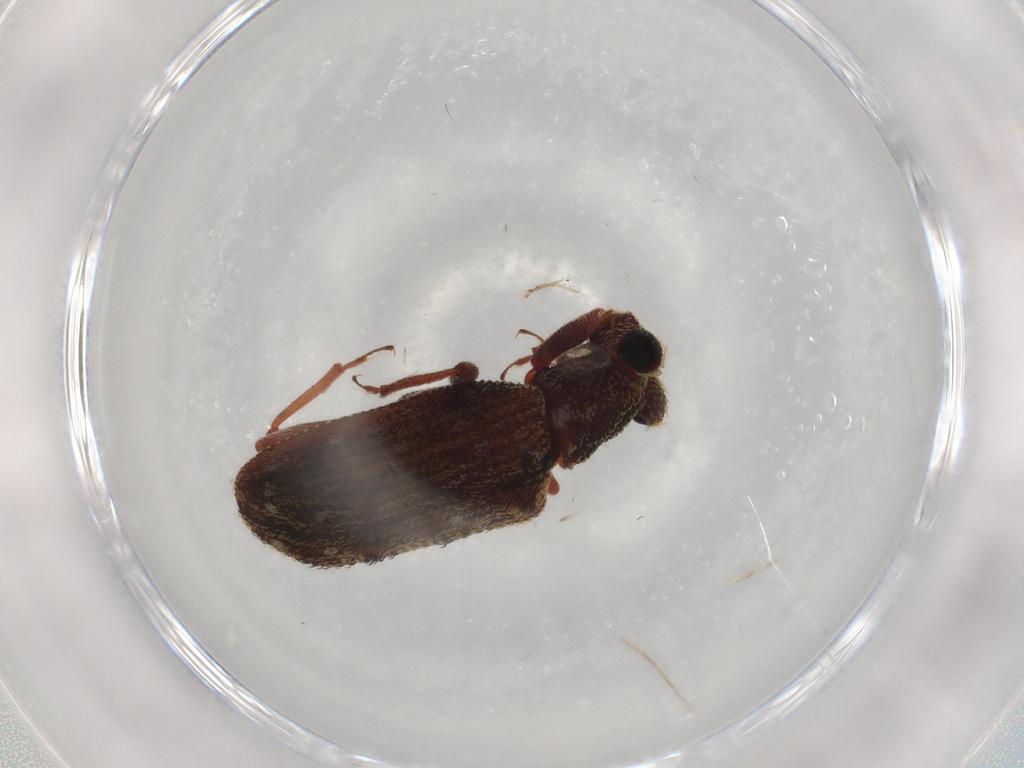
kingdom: Animalia
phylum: Arthropoda
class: Insecta
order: Coleoptera
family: Zopheridae
